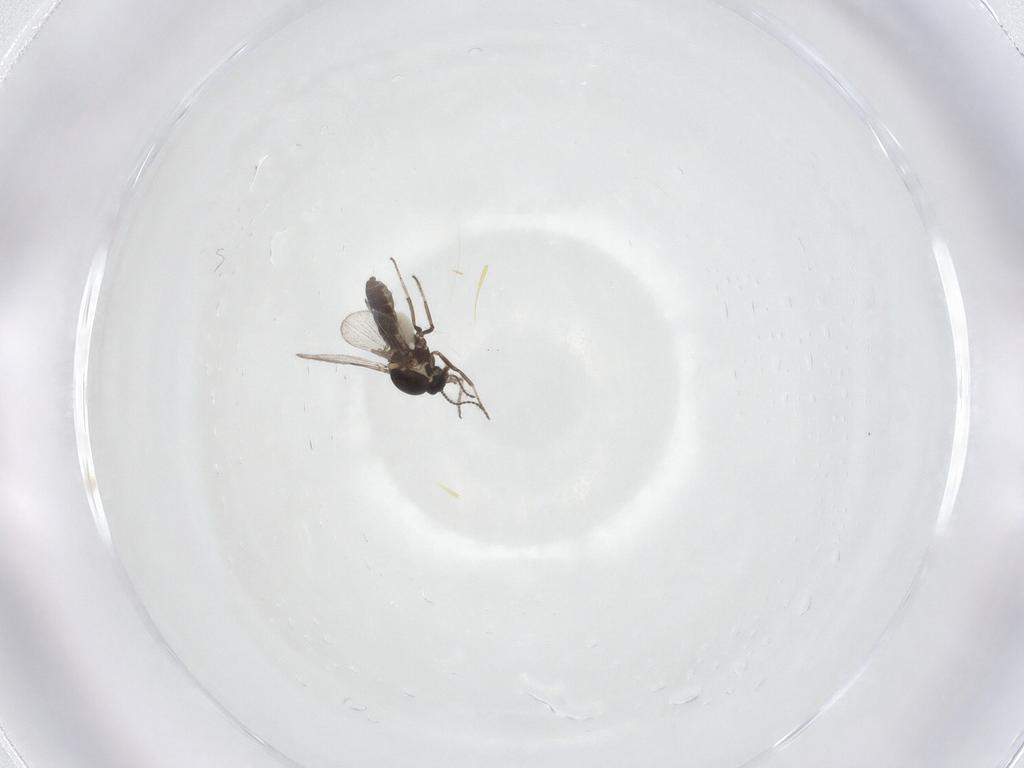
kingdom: Animalia
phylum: Arthropoda
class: Insecta
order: Diptera
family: Ceratopogonidae
